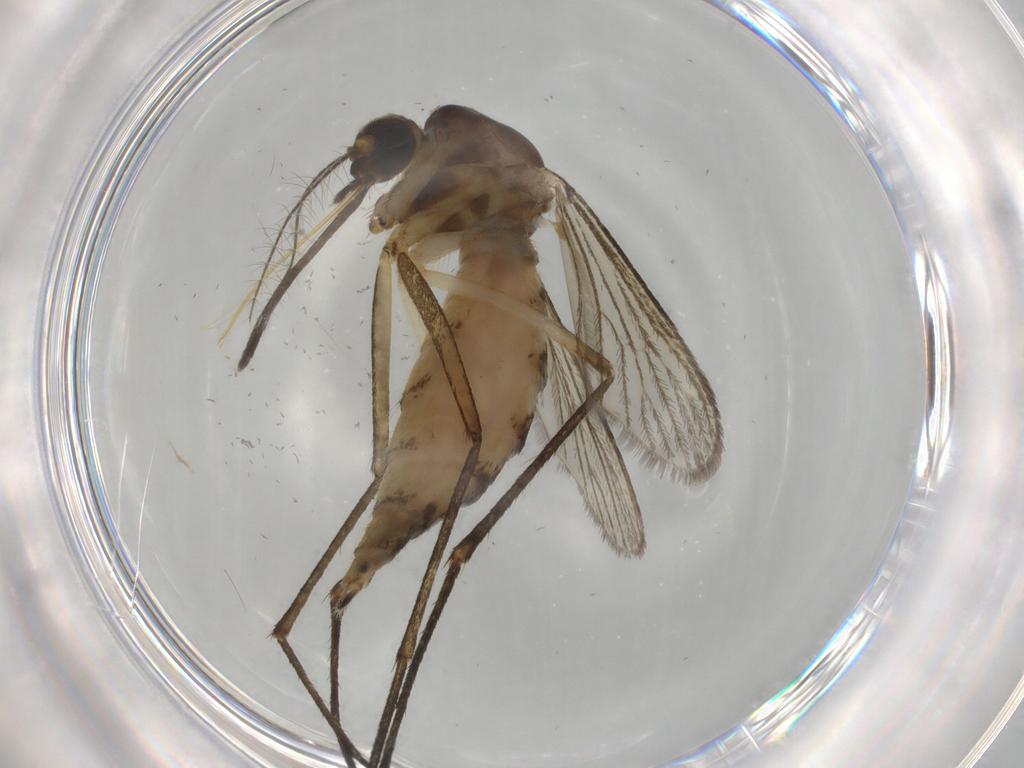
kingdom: Animalia
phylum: Arthropoda
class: Insecta
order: Diptera
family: Culicidae
